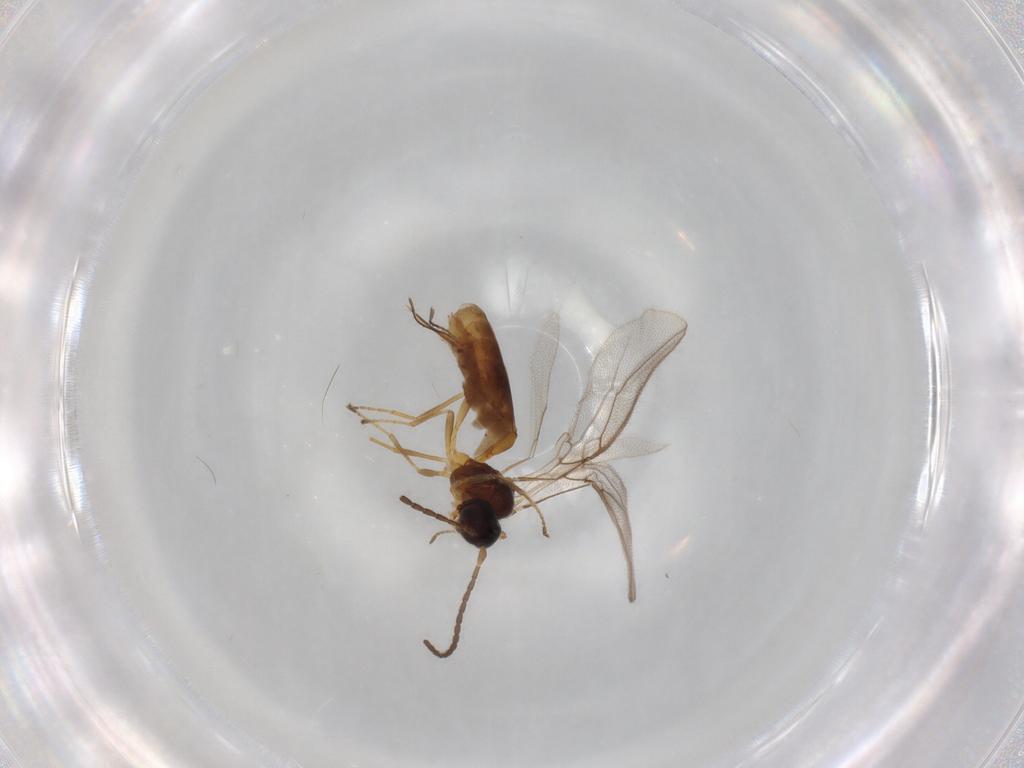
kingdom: Animalia
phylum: Arthropoda
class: Insecta
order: Hymenoptera
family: Braconidae
